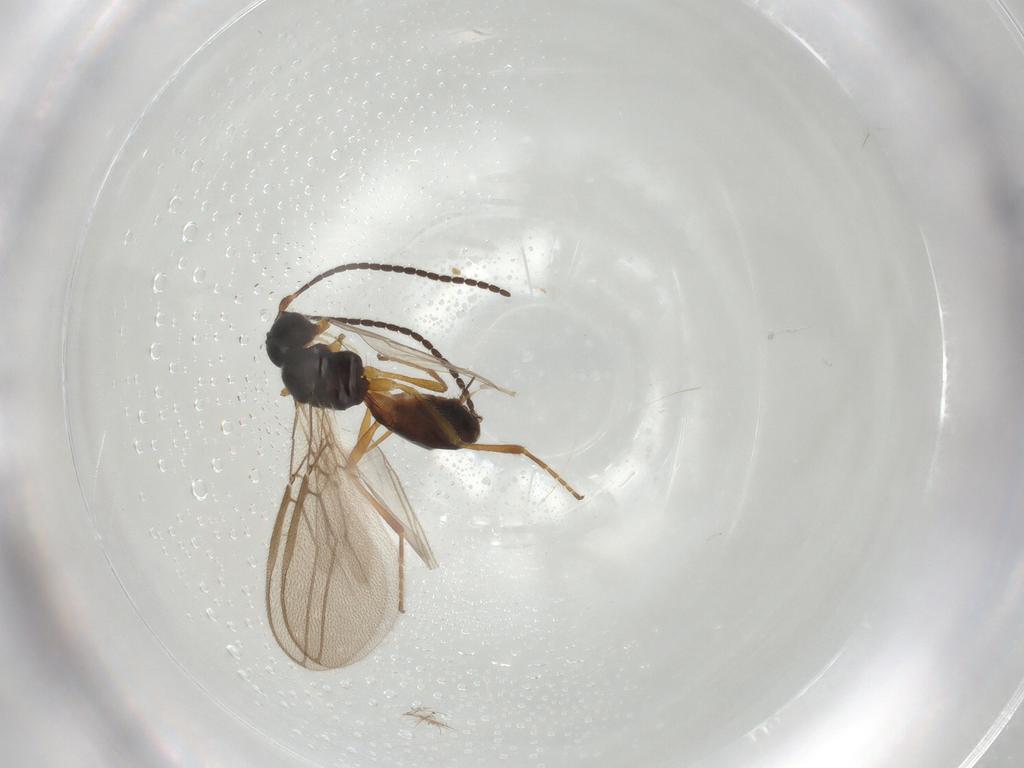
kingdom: Animalia
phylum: Arthropoda
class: Insecta
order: Hymenoptera
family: Braconidae
